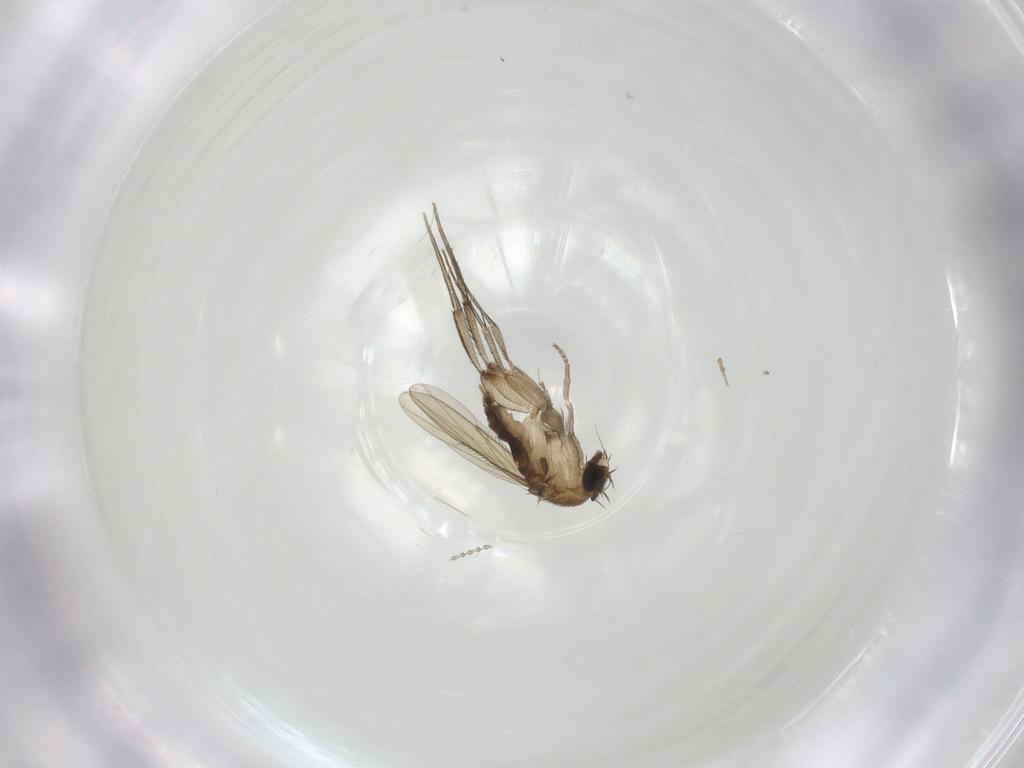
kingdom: Animalia
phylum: Arthropoda
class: Insecta
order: Diptera
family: Phoridae
